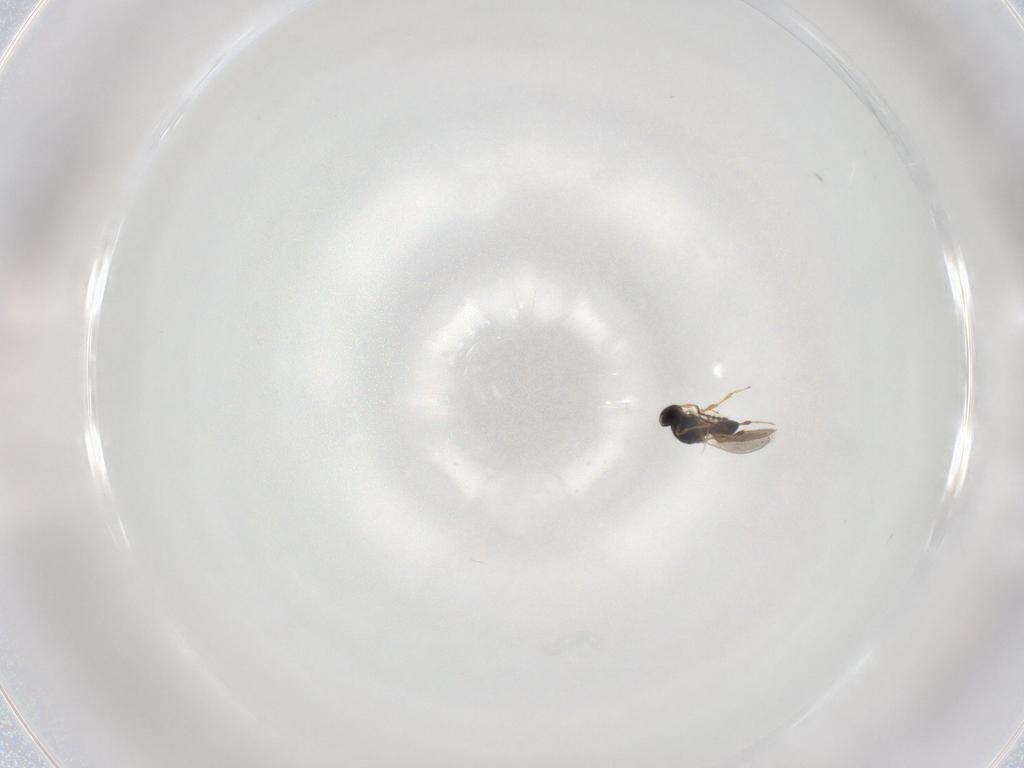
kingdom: Animalia
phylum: Arthropoda
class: Insecta
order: Hymenoptera
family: Platygastridae
